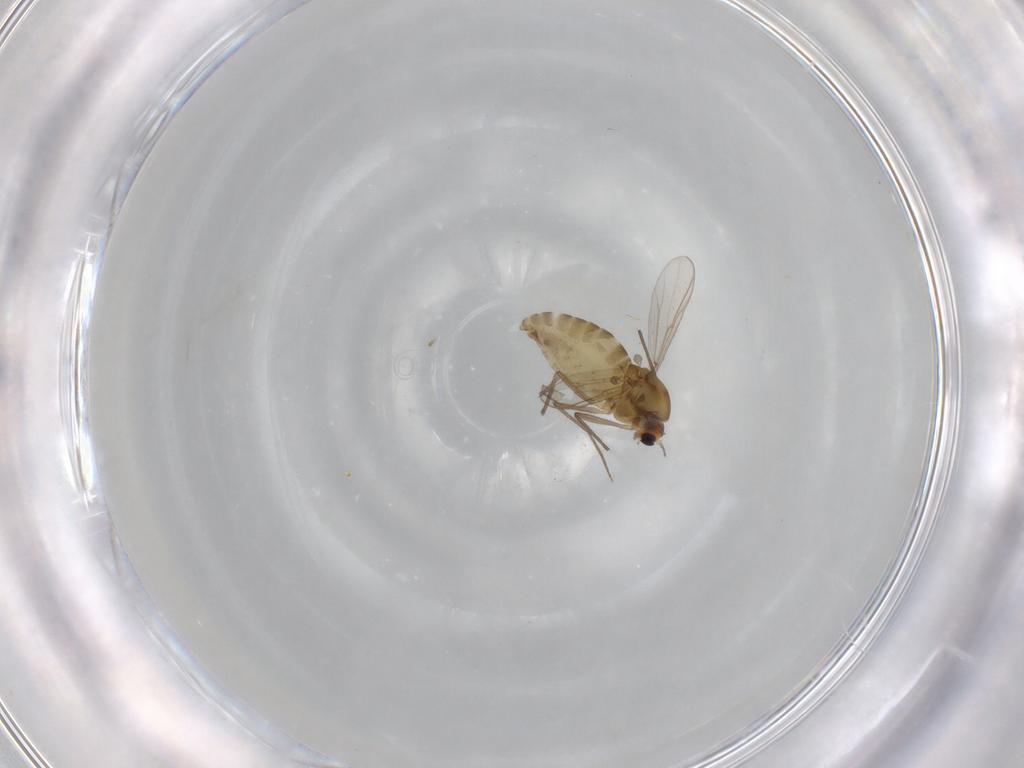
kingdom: Animalia
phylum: Arthropoda
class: Insecta
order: Diptera
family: Chironomidae
